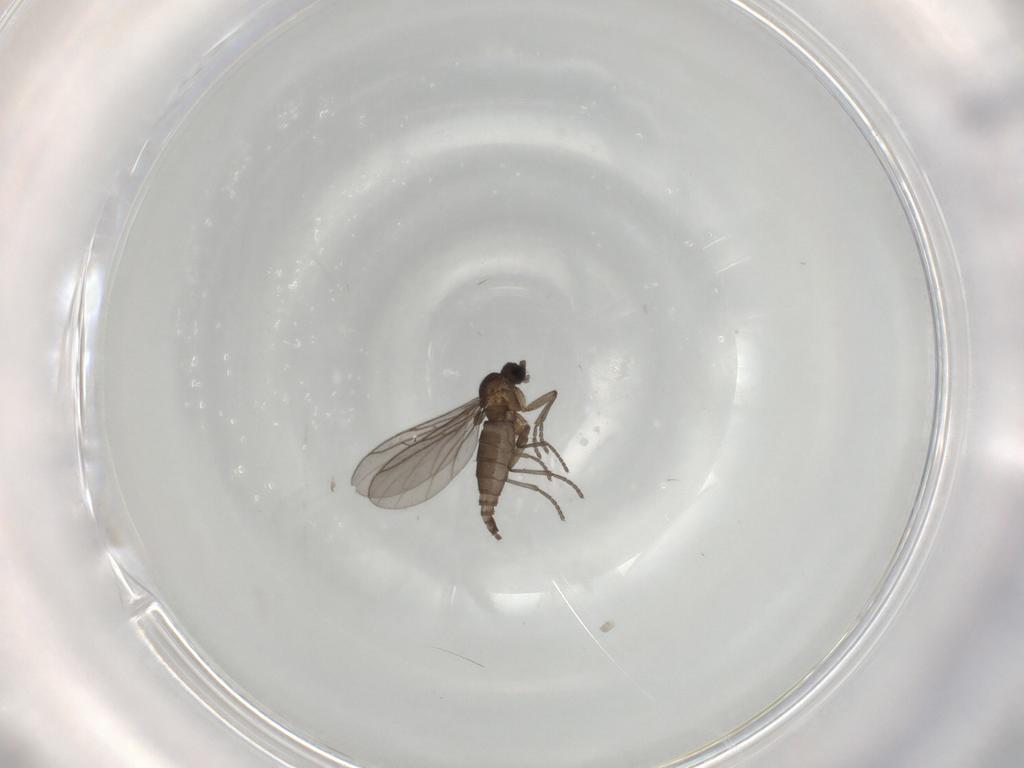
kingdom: Animalia
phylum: Arthropoda
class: Insecta
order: Diptera
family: Sciaridae
